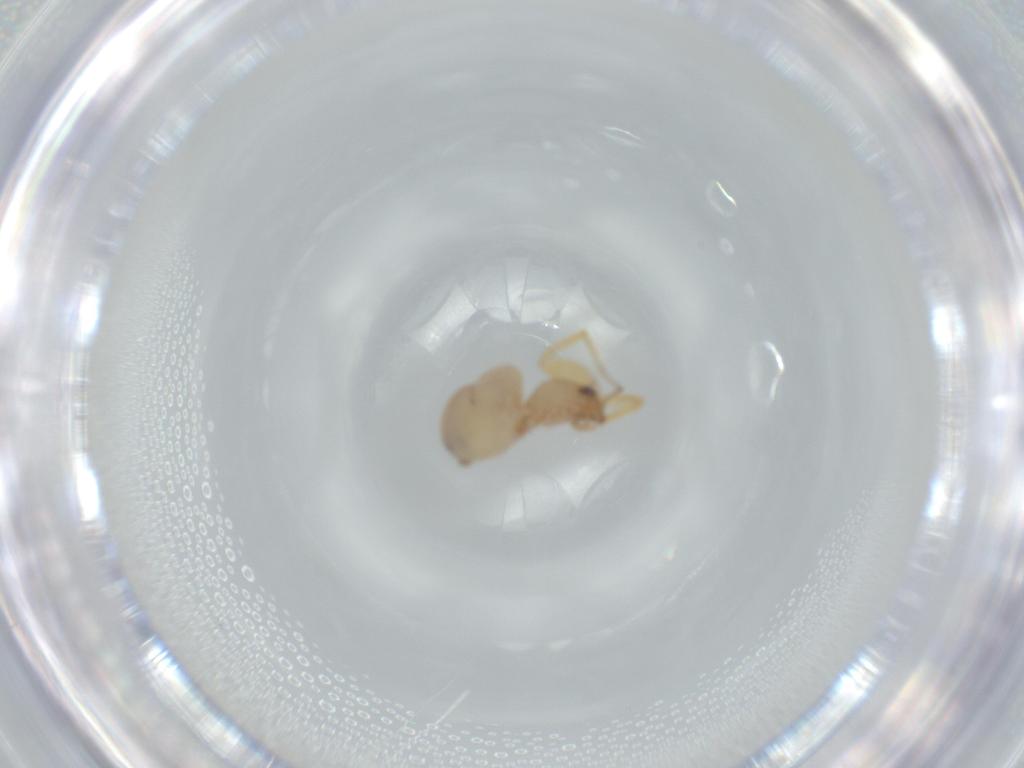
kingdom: Animalia
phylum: Arthropoda
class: Arachnida
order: Araneae
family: Oonopidae
